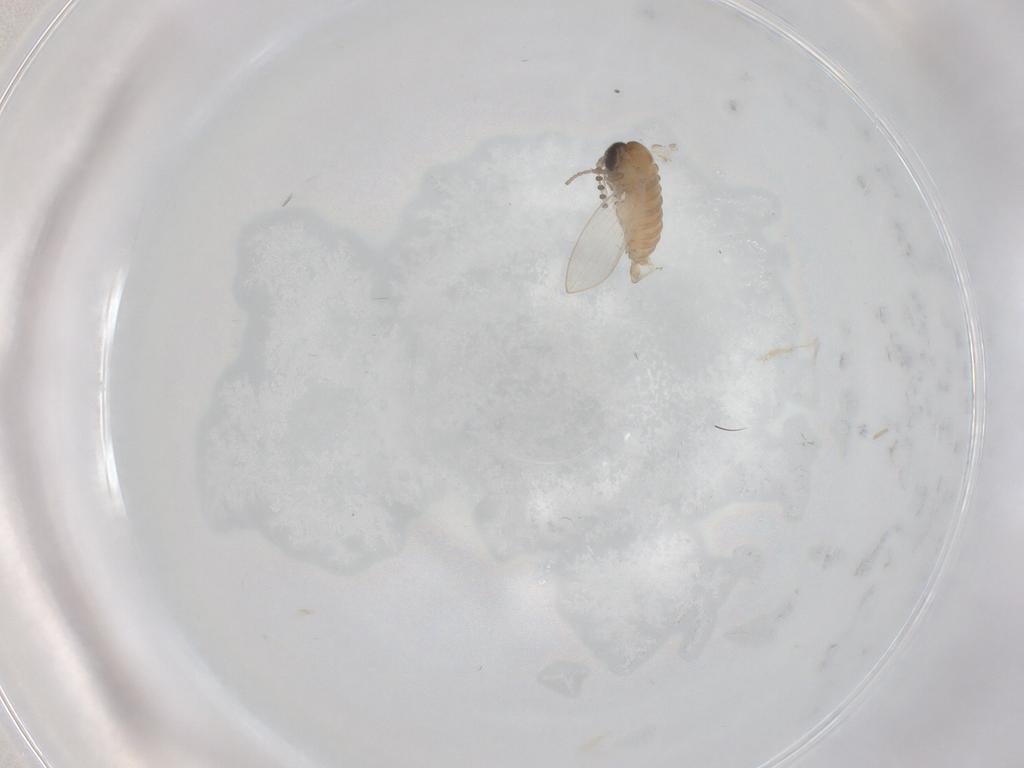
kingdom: Animalia
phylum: Arthropoda
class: Insecta
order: Diptera
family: Psychodidae
